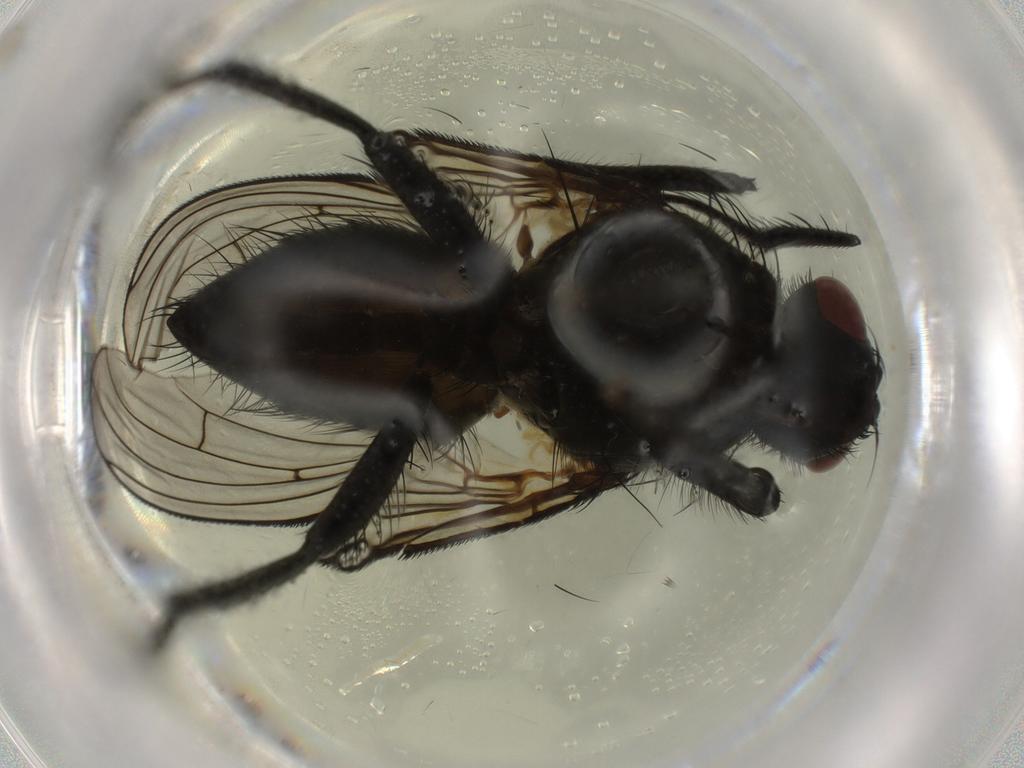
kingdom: Animalia
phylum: Arthropoda
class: Insecta
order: Diptera
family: Muscidae
